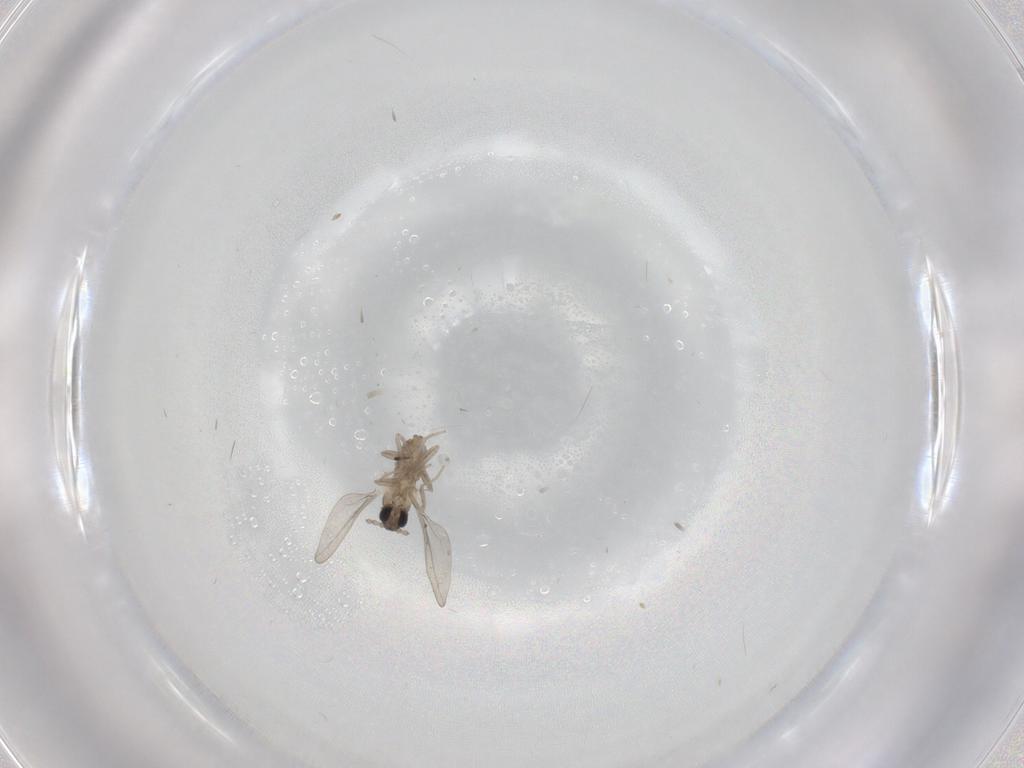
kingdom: Animalia
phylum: Arthropoda
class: Insecta
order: Diptera
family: Cecidomyiidae
